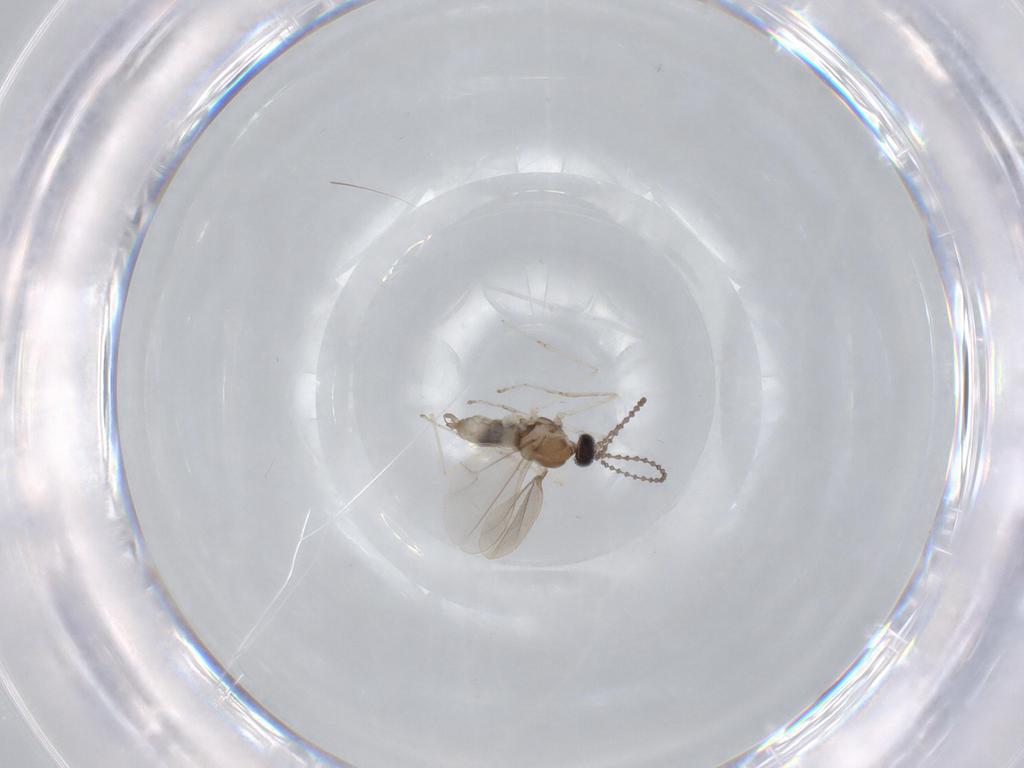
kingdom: Animalia
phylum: Arthropoda
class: Insecta
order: Diptera
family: Cecidomyiidae
